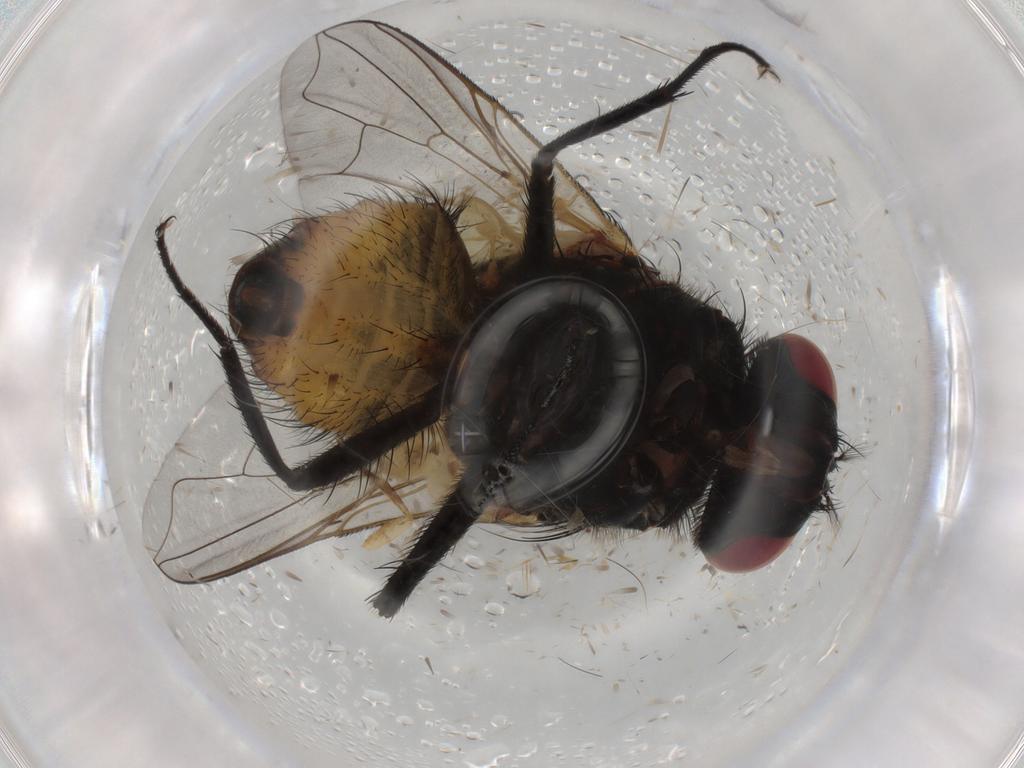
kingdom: Animalia
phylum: Arthropoda
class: Insecta
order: Diptera
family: Muscidae
